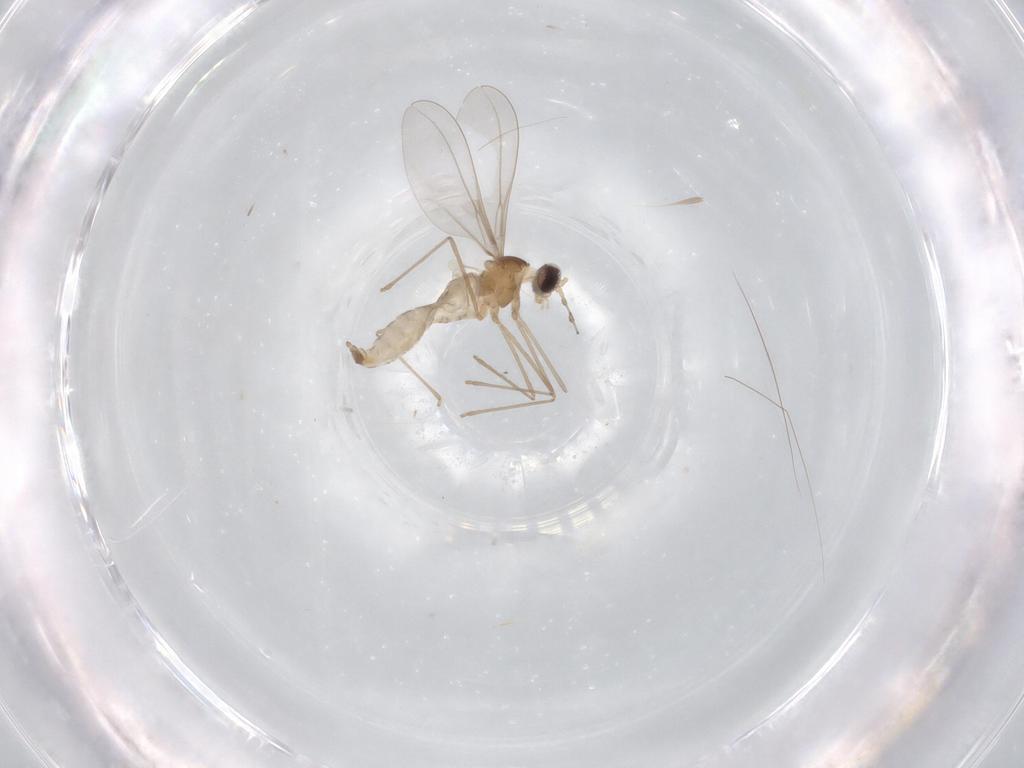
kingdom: Animalia
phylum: Arthropoda
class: Insecta
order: Diptera
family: Cecidomyiidae
